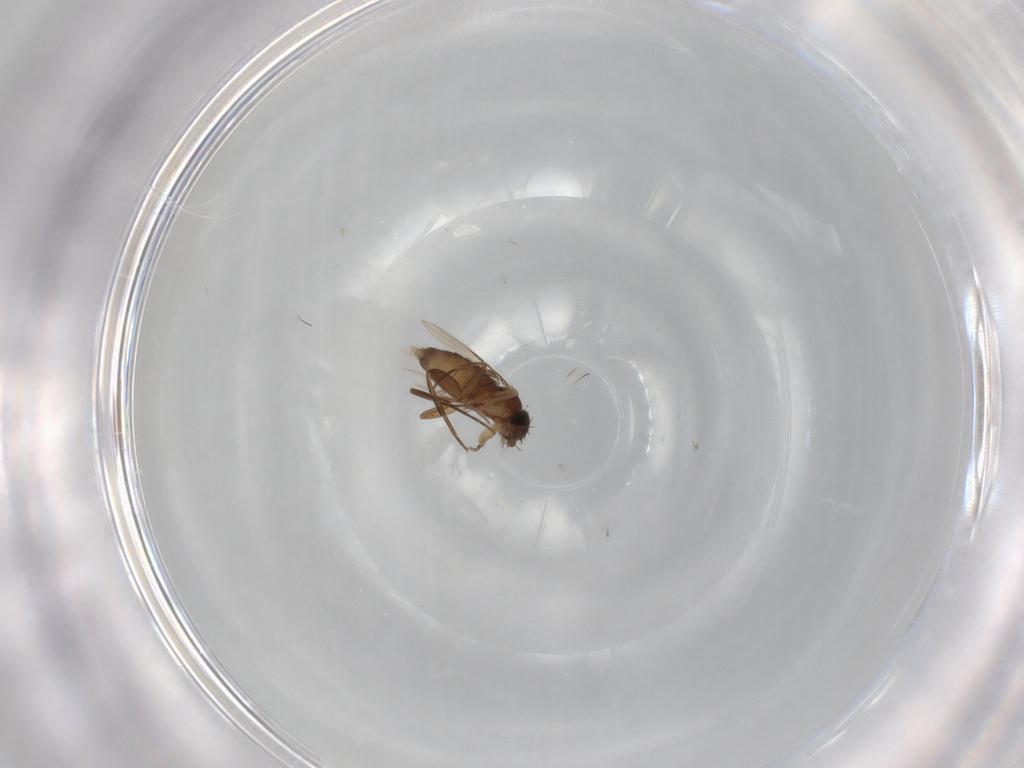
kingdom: Animalia
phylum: Arthropoda
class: Insecta
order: Diptera
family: Phoridae
